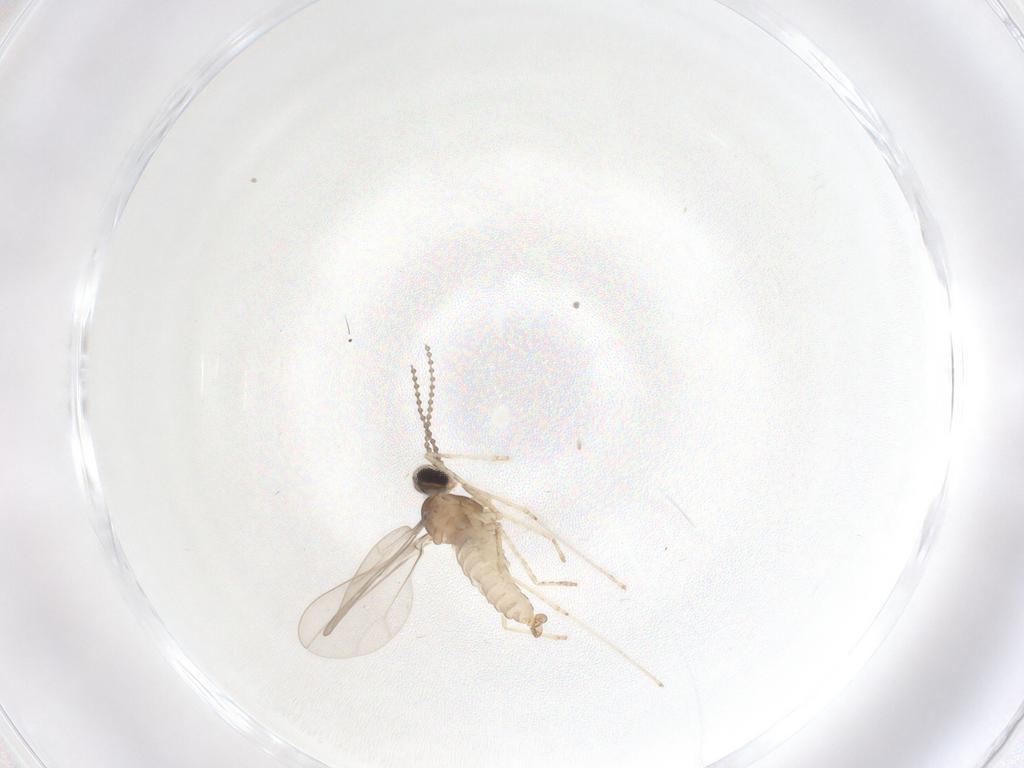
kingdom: Animalia
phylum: Arthropoda
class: Insecta
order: Diptera
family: Cecidomyiidae
